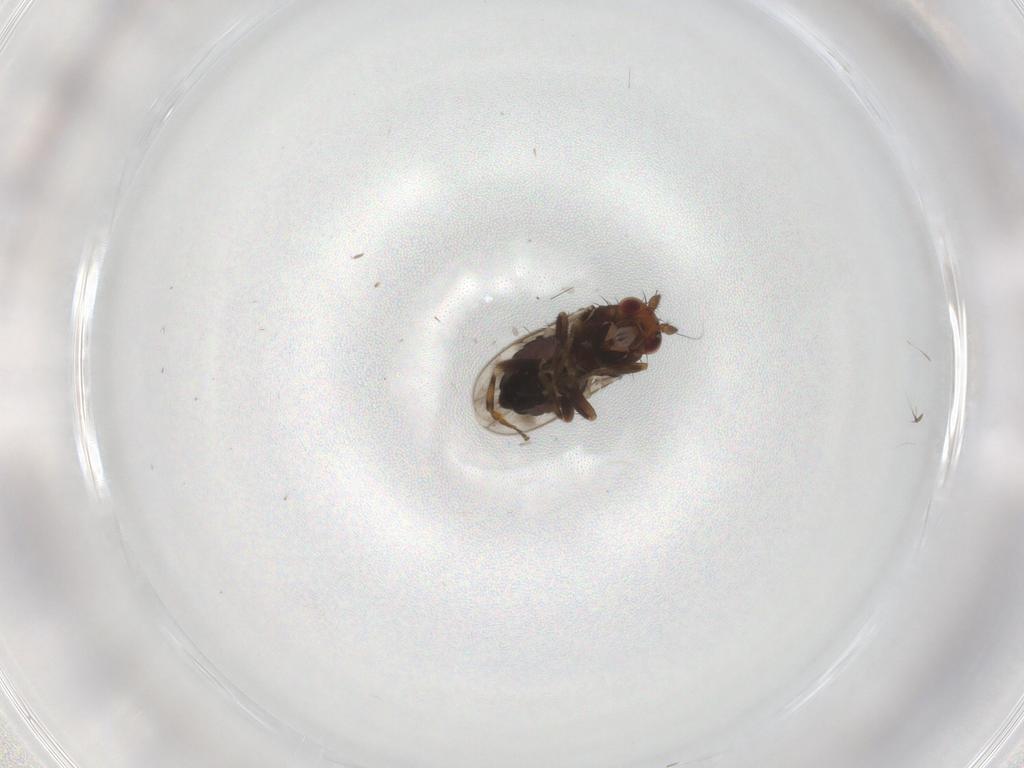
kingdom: Animalia
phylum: Arthropoda
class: Insecta
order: Diptera
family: Sphaeroceridae
